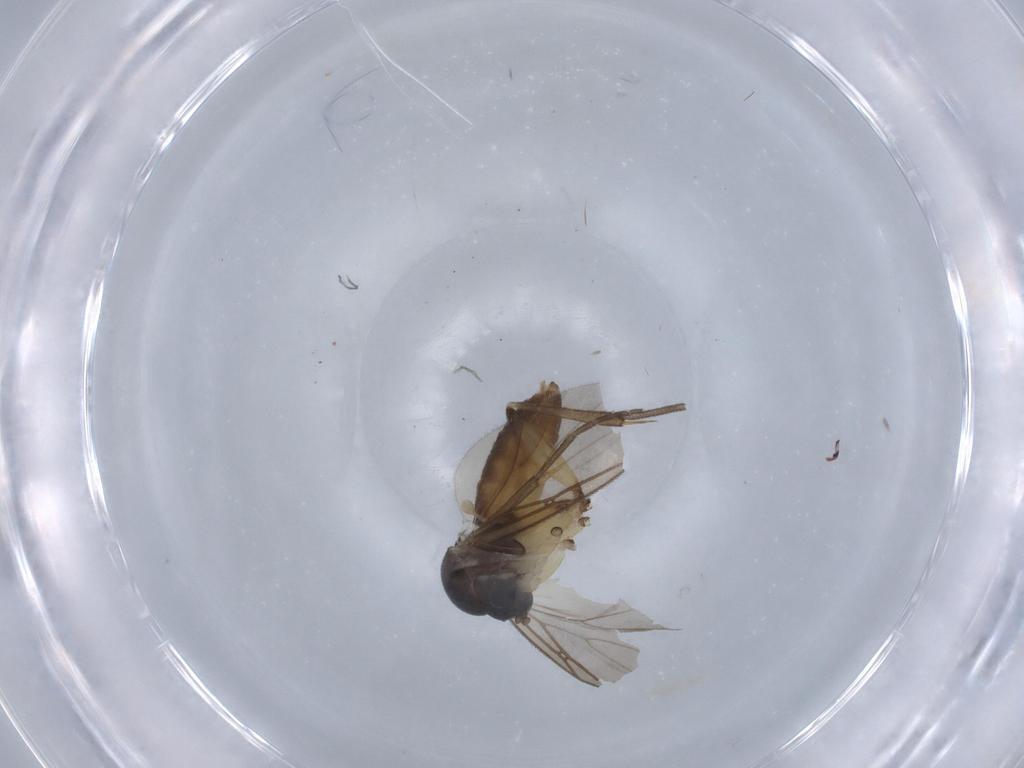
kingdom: Animalia
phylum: Arthropoda
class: Insecta
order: Diptera
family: Mycetophilidae
